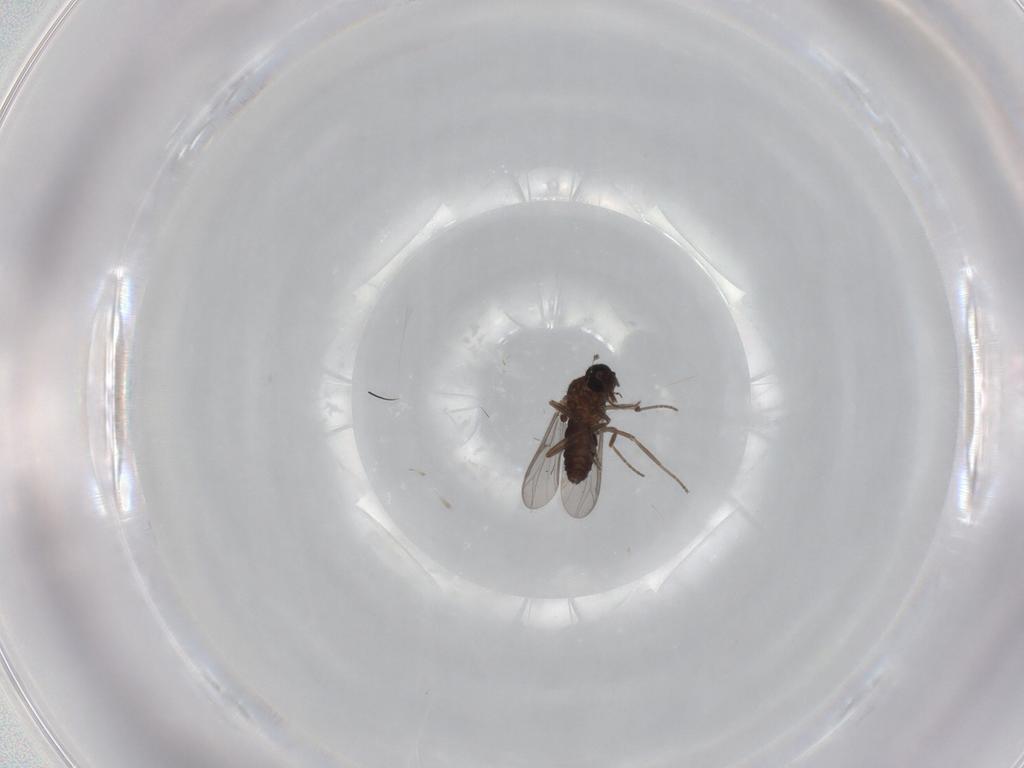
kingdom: Animalia
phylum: Arthropoda
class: Insecta
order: Diptera
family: Ceratopogonidae
